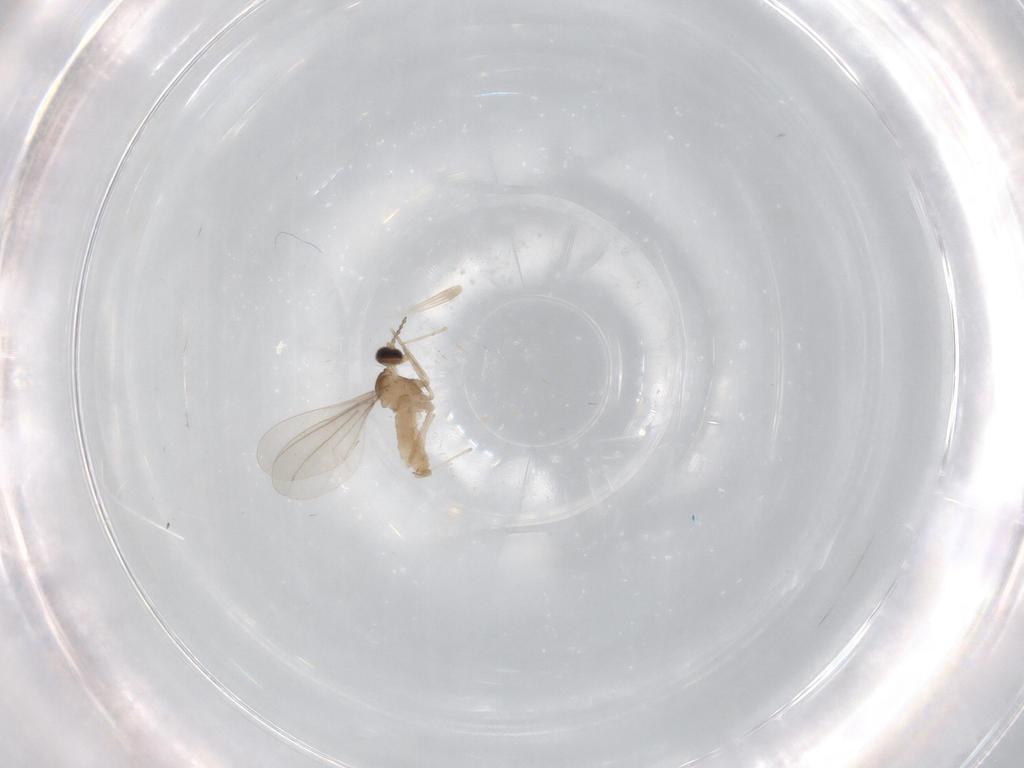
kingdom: Animalia
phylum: Arthropoda
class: Insecta
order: Diptera
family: Cecidomyiidae
